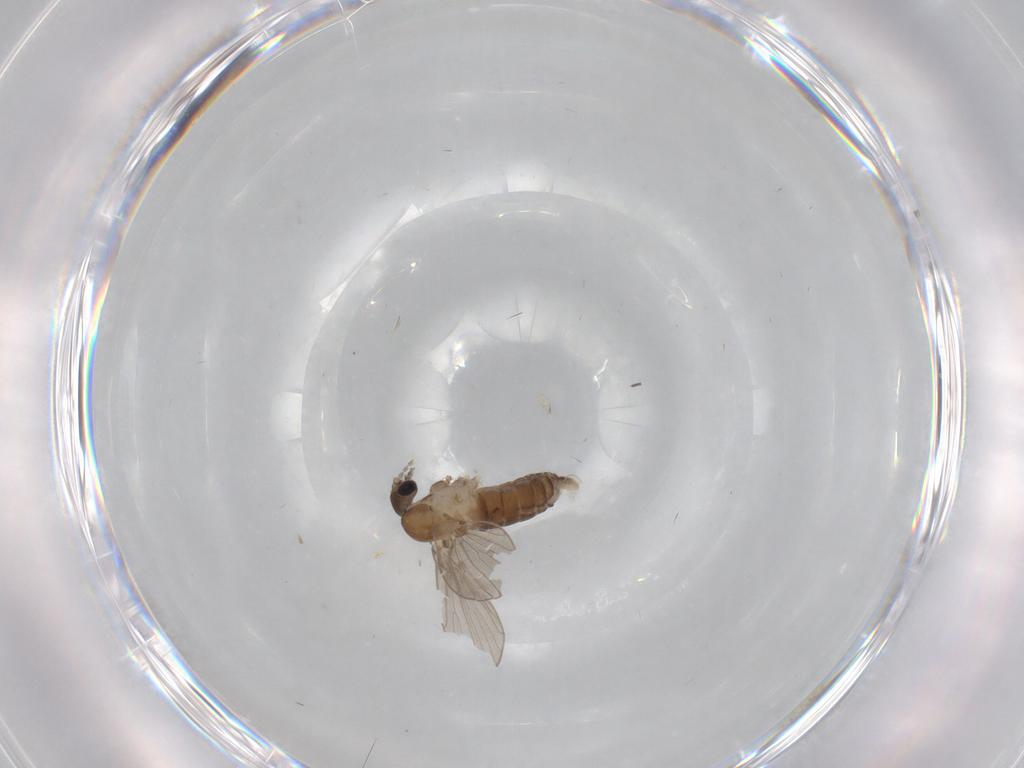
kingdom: Animalia
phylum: Arthropoda
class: Insecta
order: Diptera
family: Psychodidae
